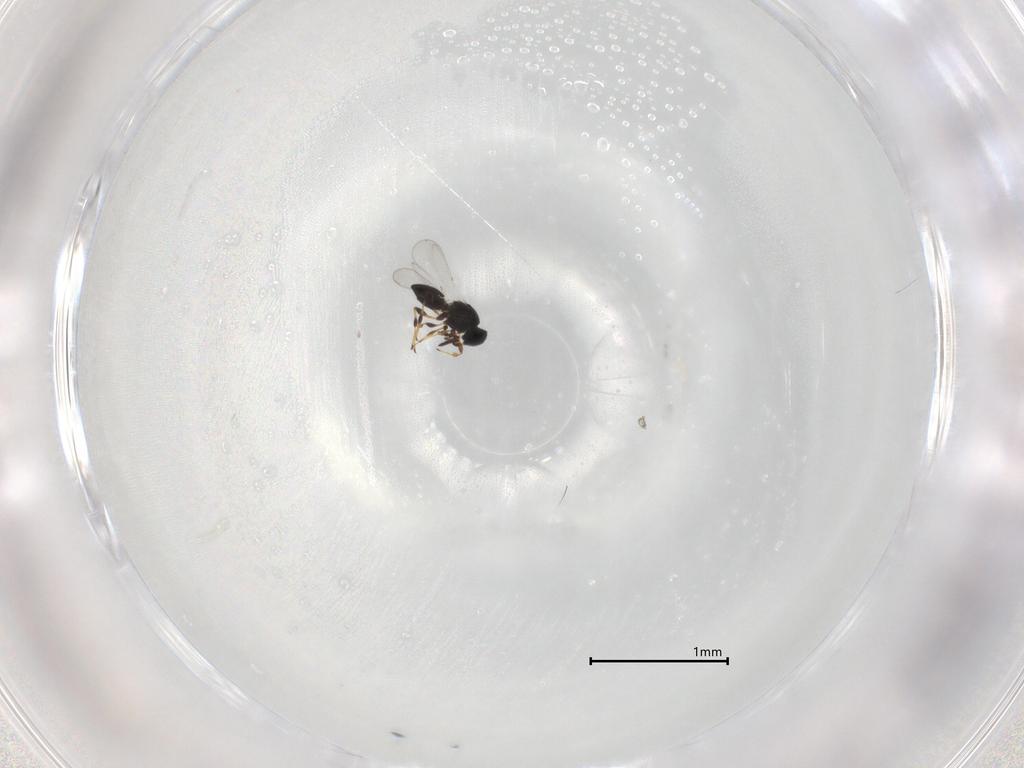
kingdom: Animalia
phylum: Arthropoda
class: Insecta
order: Hymenoptera
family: Platygastridae
